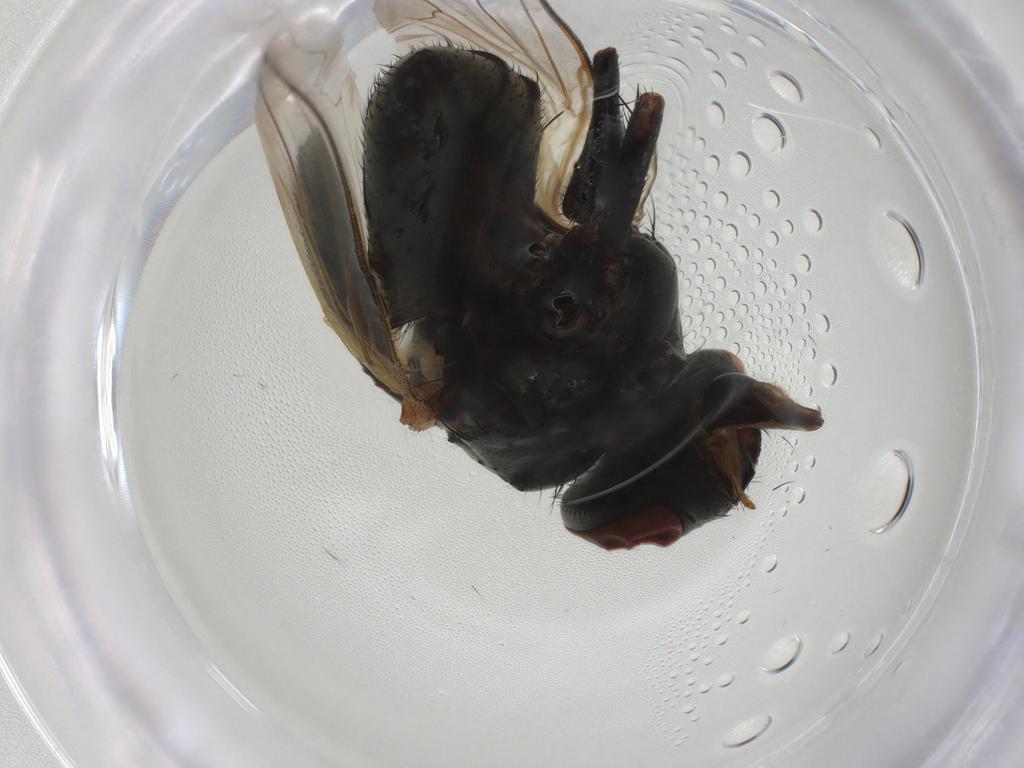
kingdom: Animalia
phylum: Arthropoda
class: Insecta
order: Diptera
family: Muscidae
